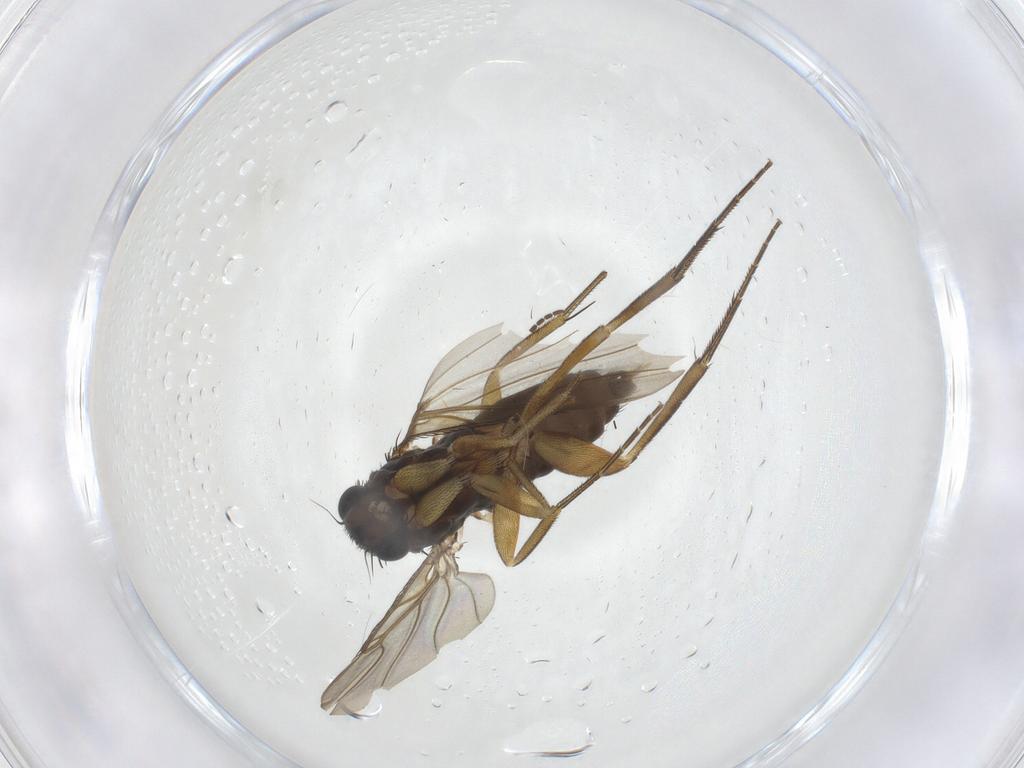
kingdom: Animalia
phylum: Arthropoda
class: Insecta
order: Diptera
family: Phoridae
